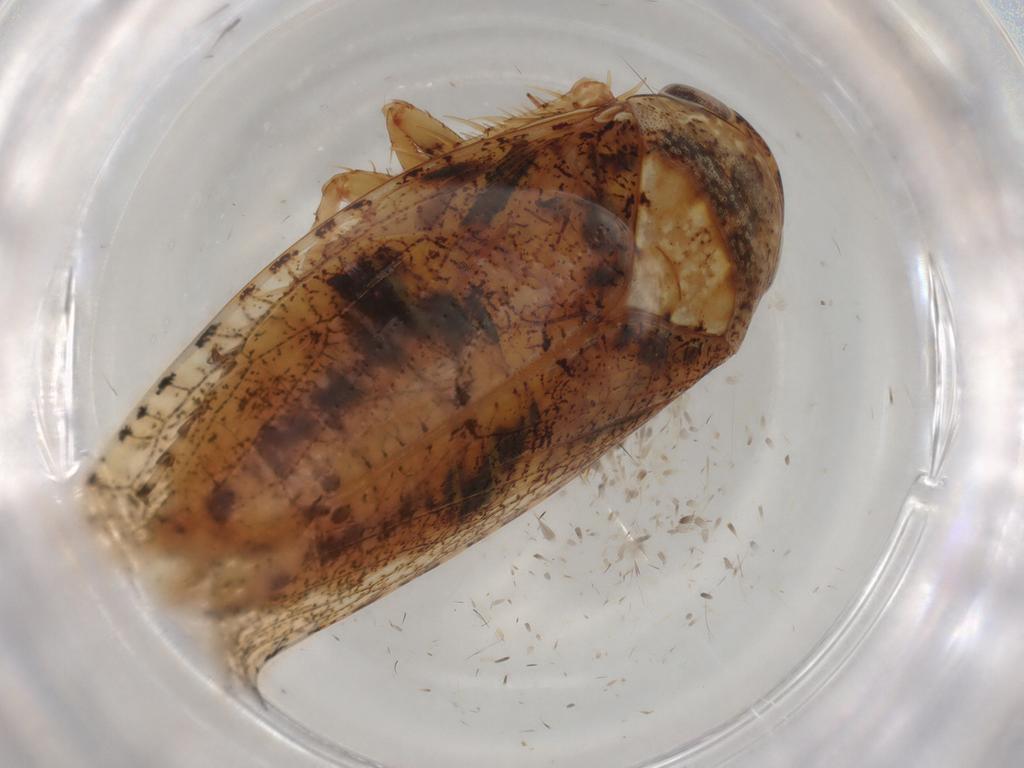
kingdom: Animalia
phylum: Arthropoda
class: Insecta
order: Hemiptera
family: Cicadellidae
